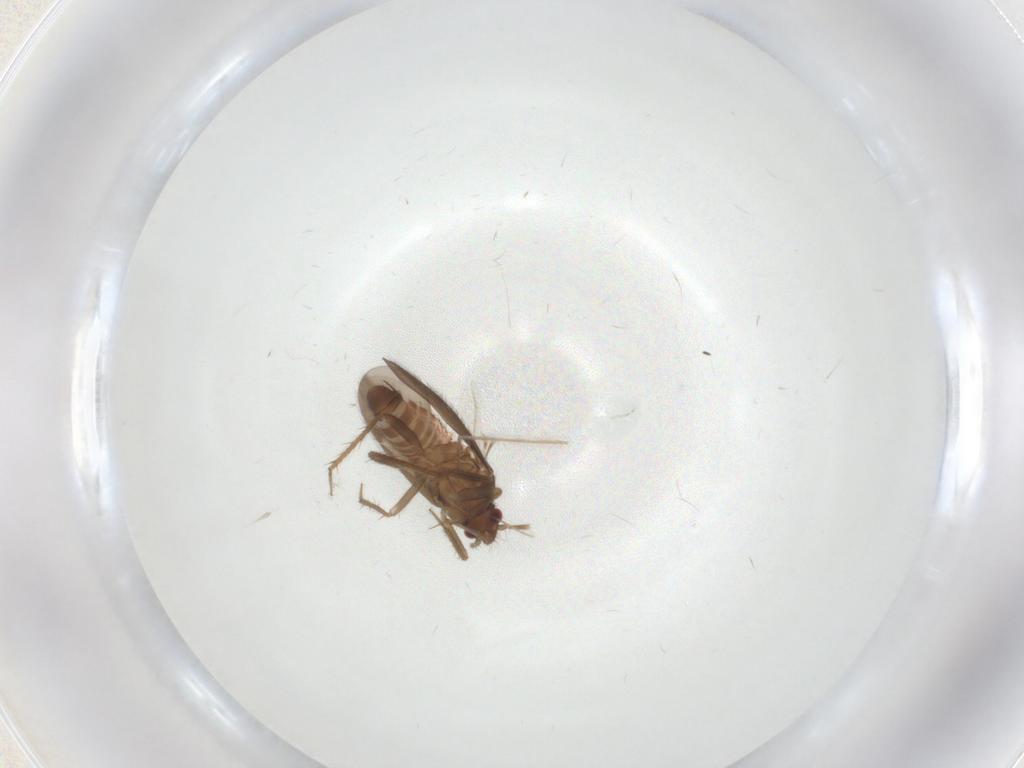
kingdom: Animalia
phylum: Arthropoda
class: Insecta
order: Hemiptera
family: Ceratocombidae
